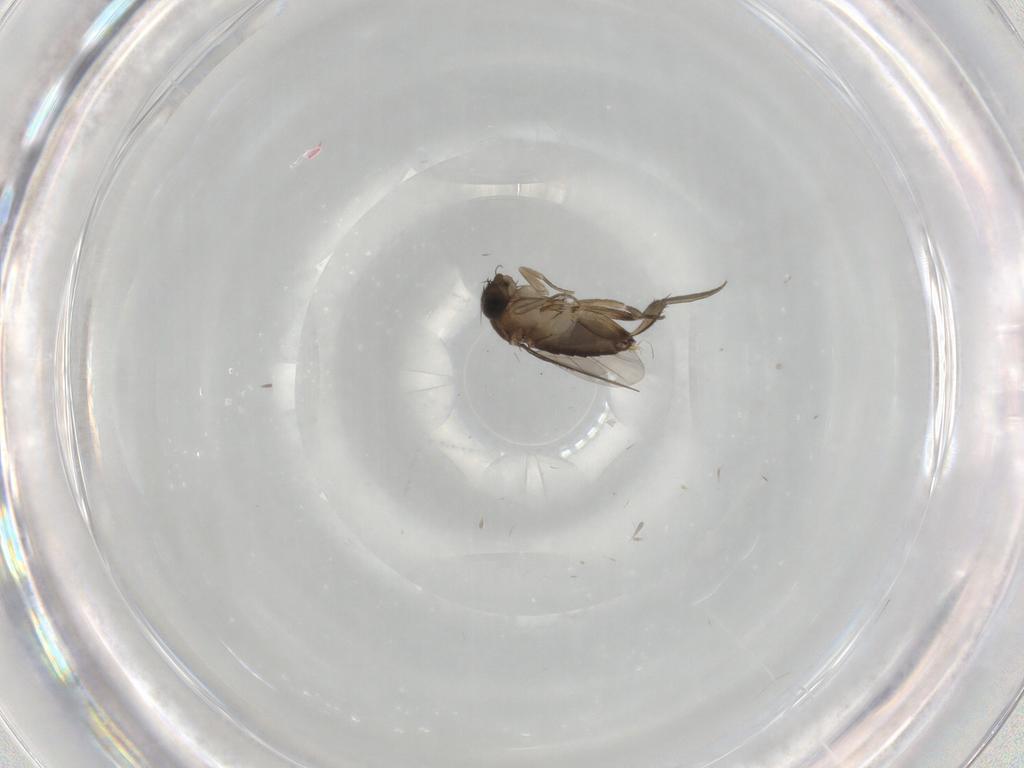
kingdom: Animalia
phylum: Arthropoda
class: Insecta
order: Diptera
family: Phoridae
